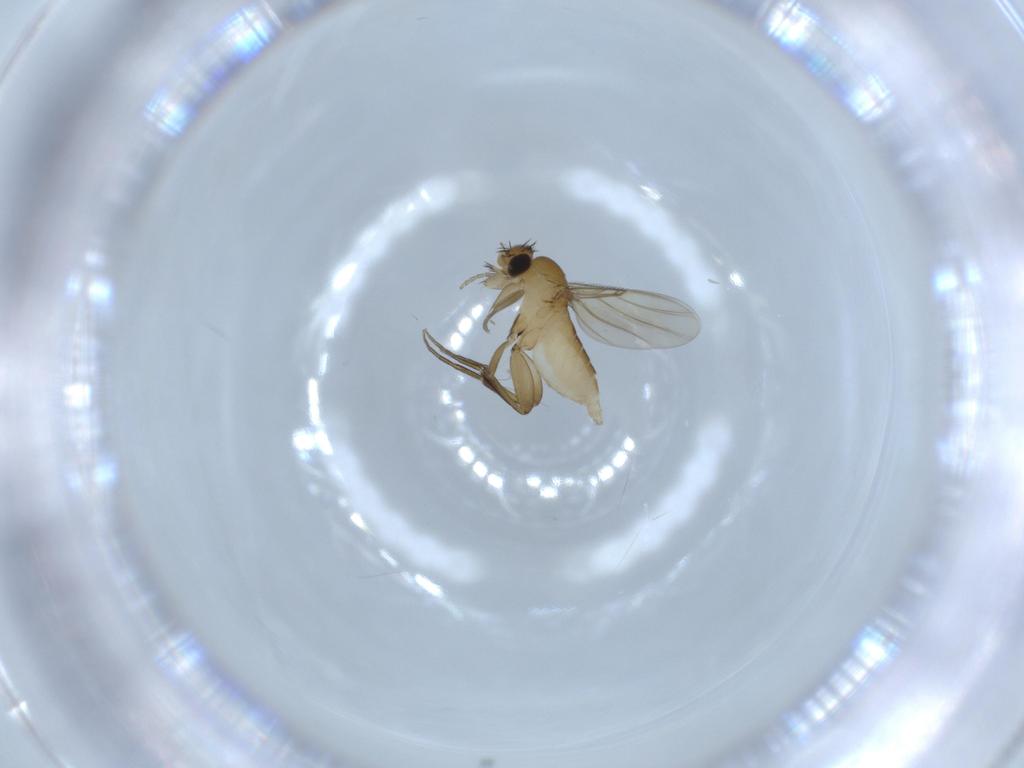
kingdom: Animalia
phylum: Arthropoda
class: Insecta
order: Diptera
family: Phoridae
